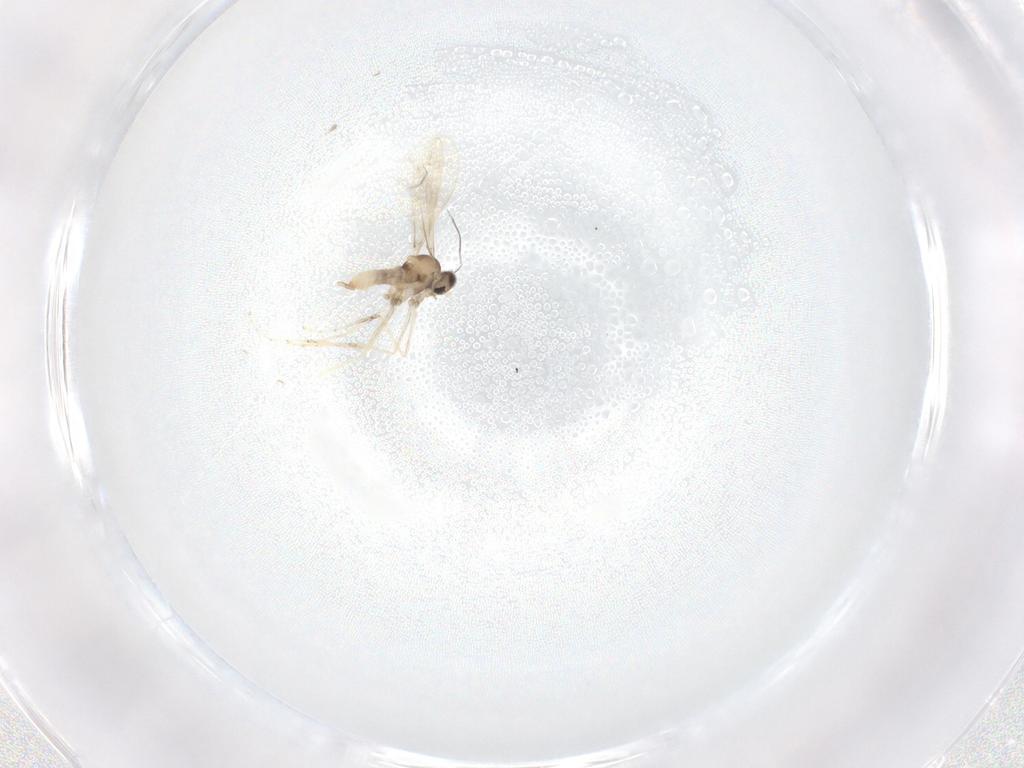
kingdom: Animalia
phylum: Arthropoda
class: Insecta
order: Diptera
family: Cecidomyiidae
